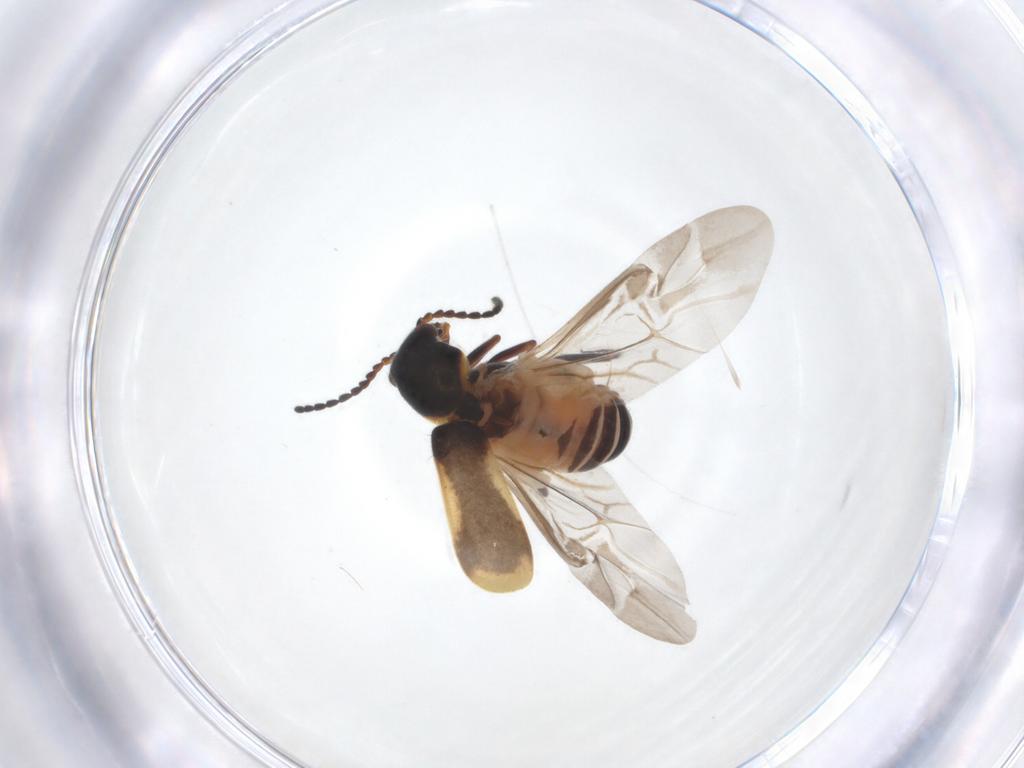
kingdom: Animalia
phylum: Arthropoda
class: Insecta
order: Coleoptera
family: Melyridae
